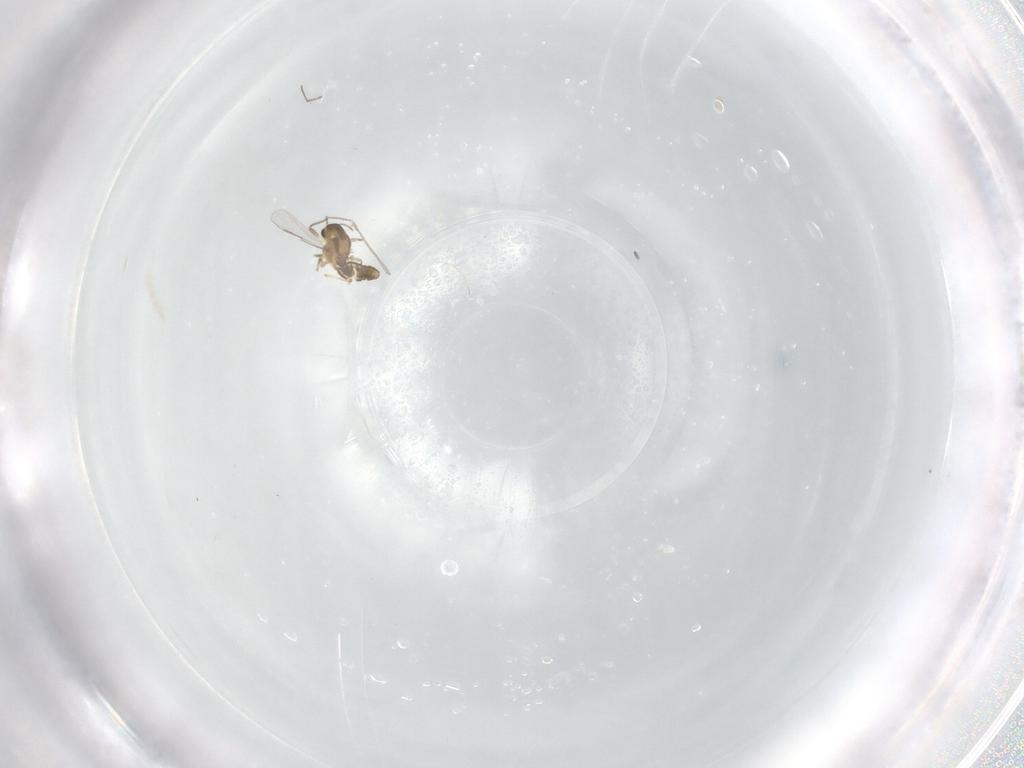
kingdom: Animalia
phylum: Arthropoda
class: Insecta
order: Diptera
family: Chironomidae
